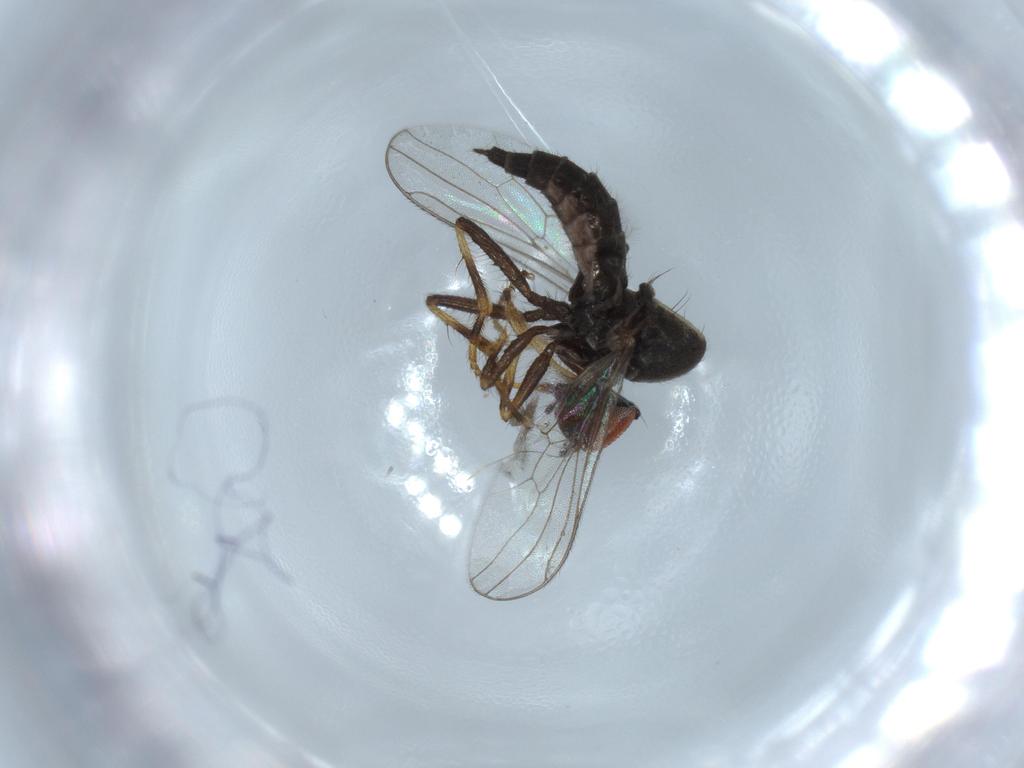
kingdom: Animalia
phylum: Arthropoda
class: Insecta
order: Diptera
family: Hybotidae
